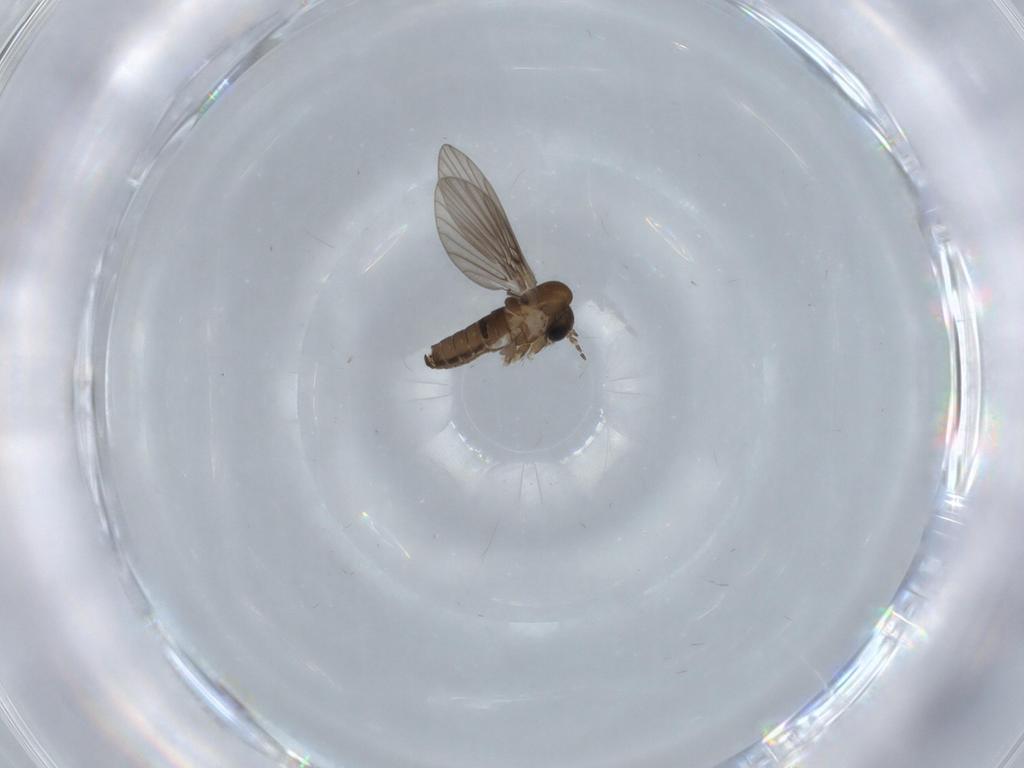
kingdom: Animalia
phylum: Arthropoda
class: Insecta
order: Diptera
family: Psychodidae
